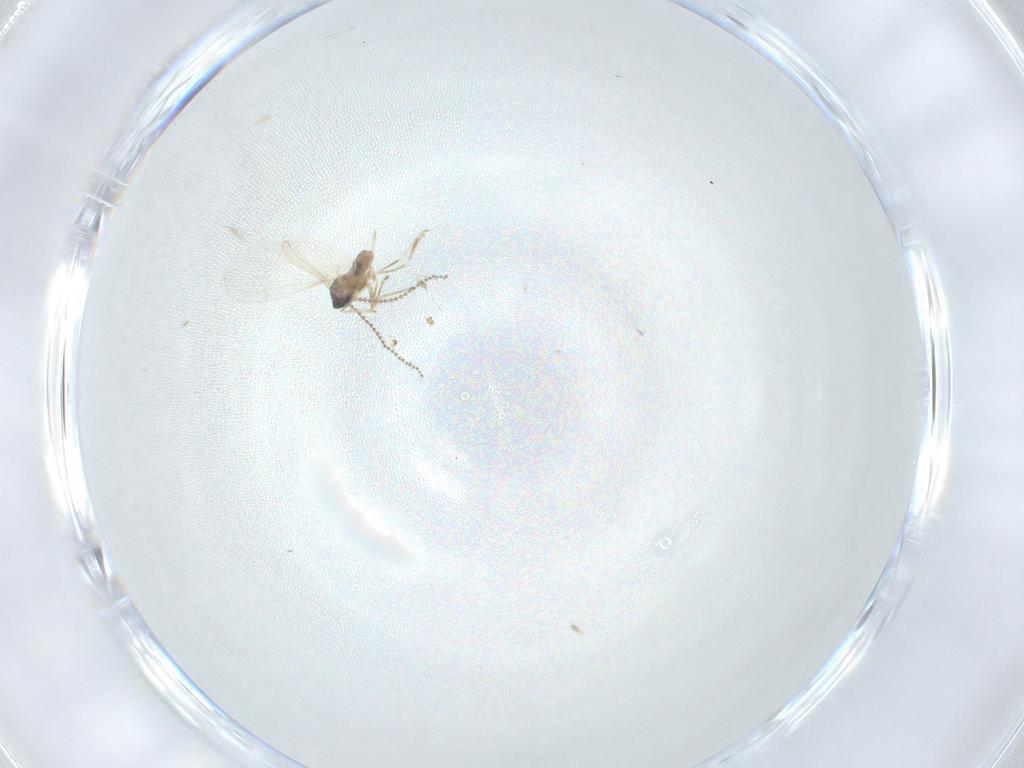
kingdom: Animalia
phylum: Arthropoda
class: Insecta
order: Diptera
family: Cecidomyiidae
